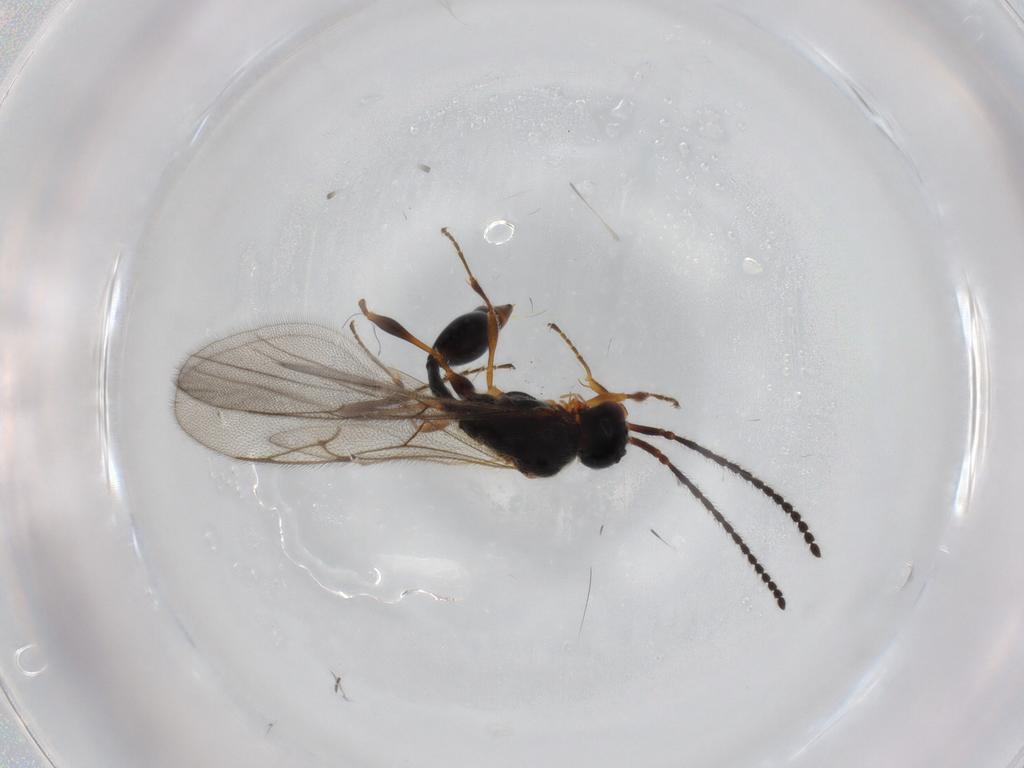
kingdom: Animalia
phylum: Arthropoda
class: Insecta
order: Hymenoptera
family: Diapriidae
